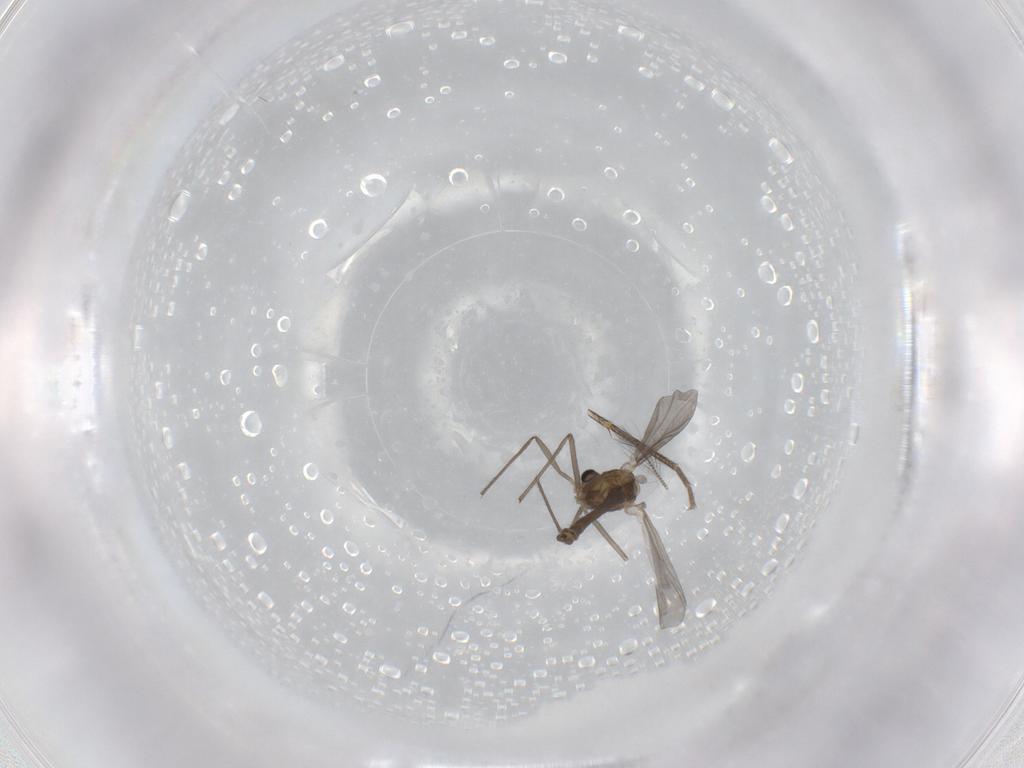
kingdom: Animalia
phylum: Arthropoda
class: Insecta
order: Diptera
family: Chironomidae
